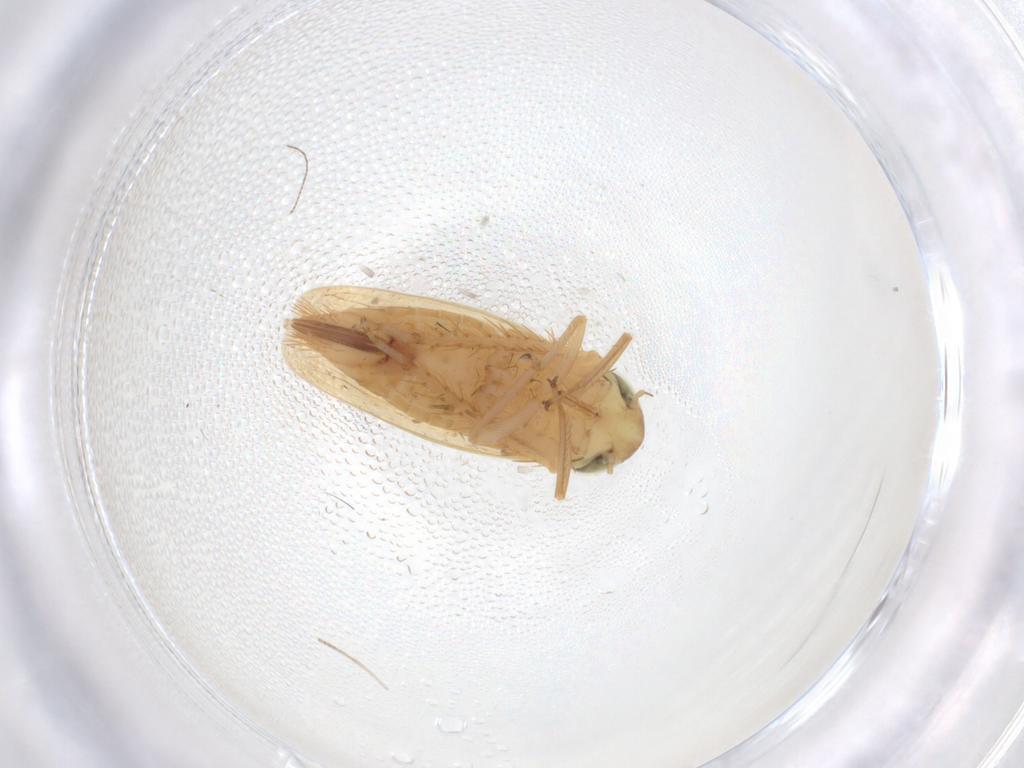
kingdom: Animalia
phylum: Arthropoda
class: Insecta
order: Hemiptera
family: Cicadellidae
